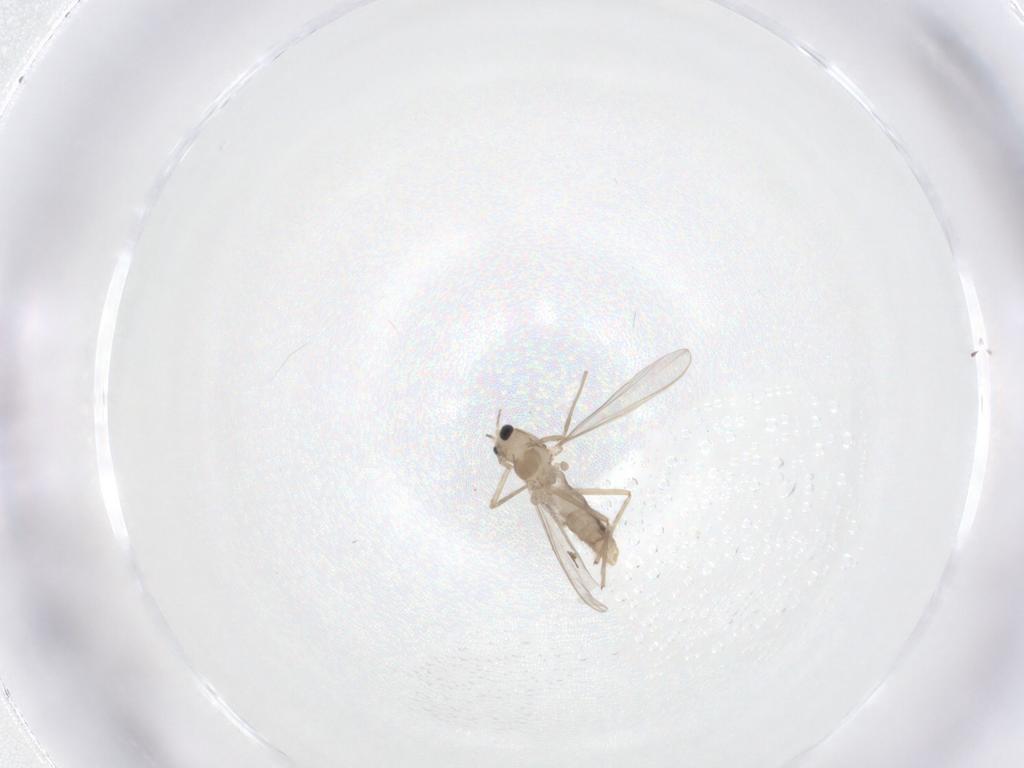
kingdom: Animalia
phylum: Arthropoda
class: Insecta
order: Diptera
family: Chironomidae
